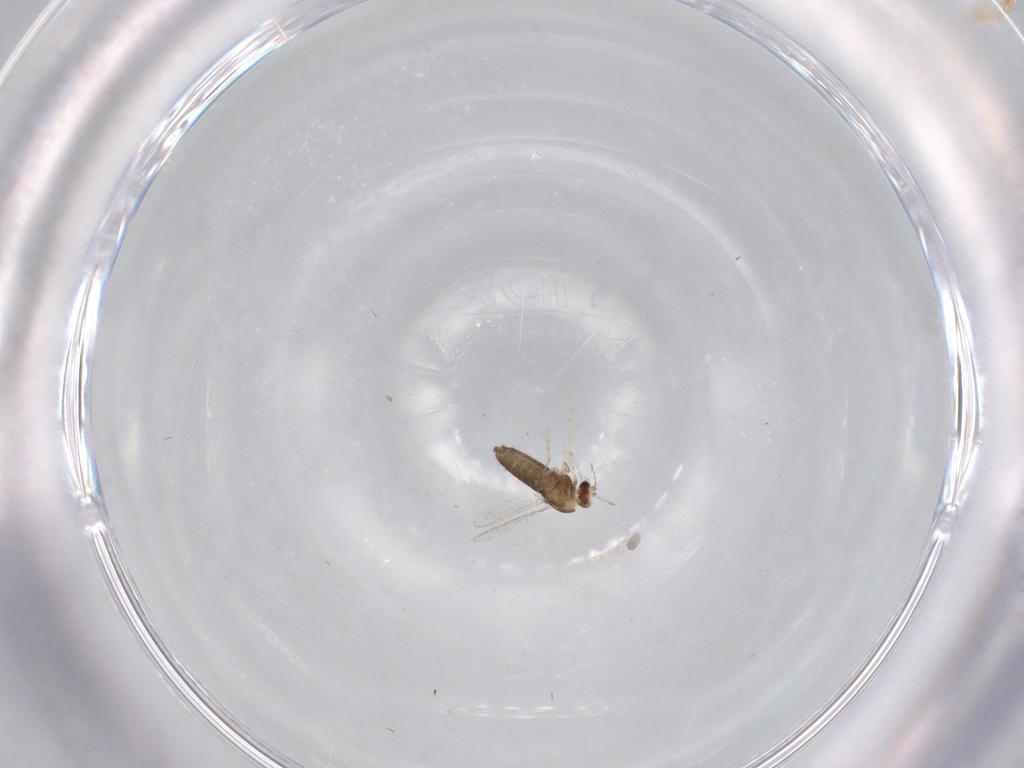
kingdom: Animalia
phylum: Arthropoda
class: Insecta
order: Diptera
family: Chironomidae
